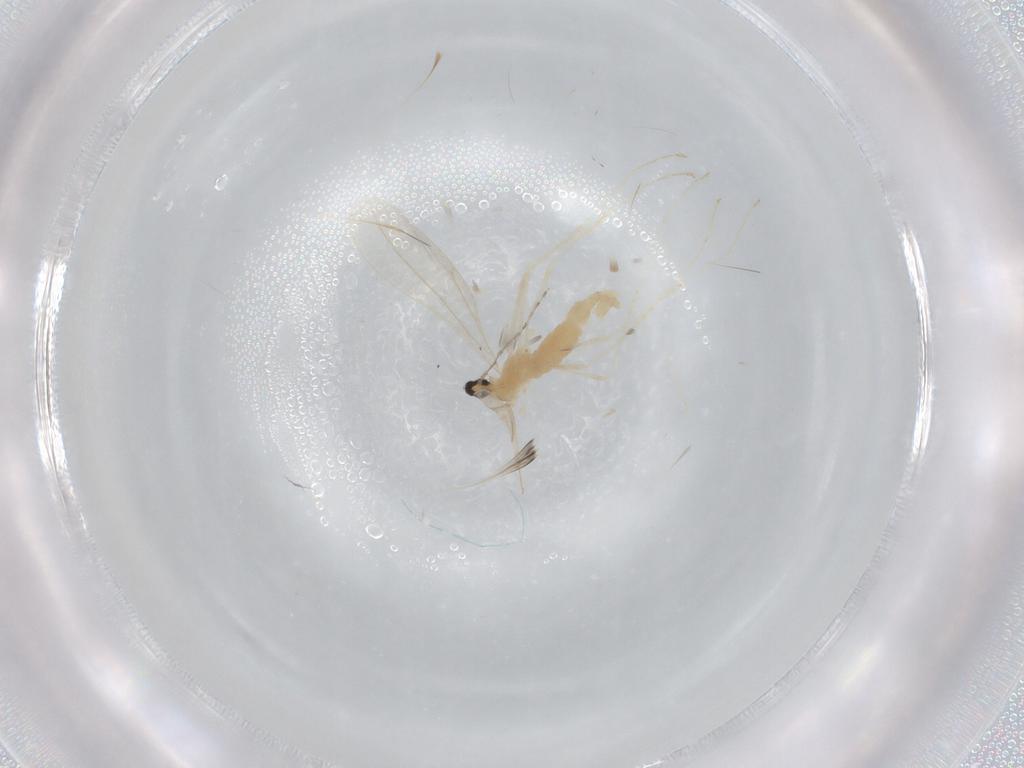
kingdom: Animalia
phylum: Arthropoda
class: Insecta
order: Diptera
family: Cecidomyiidae
